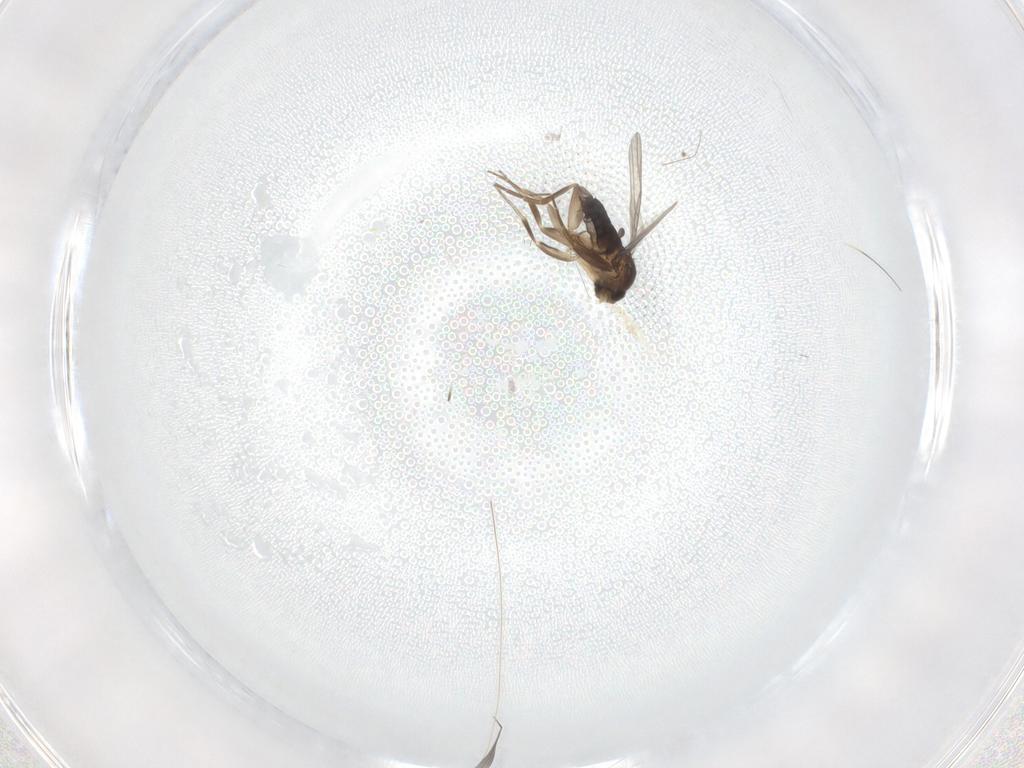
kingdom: Animalia
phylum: Arthropoda
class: Insecta
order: Diptera
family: Phoridae
